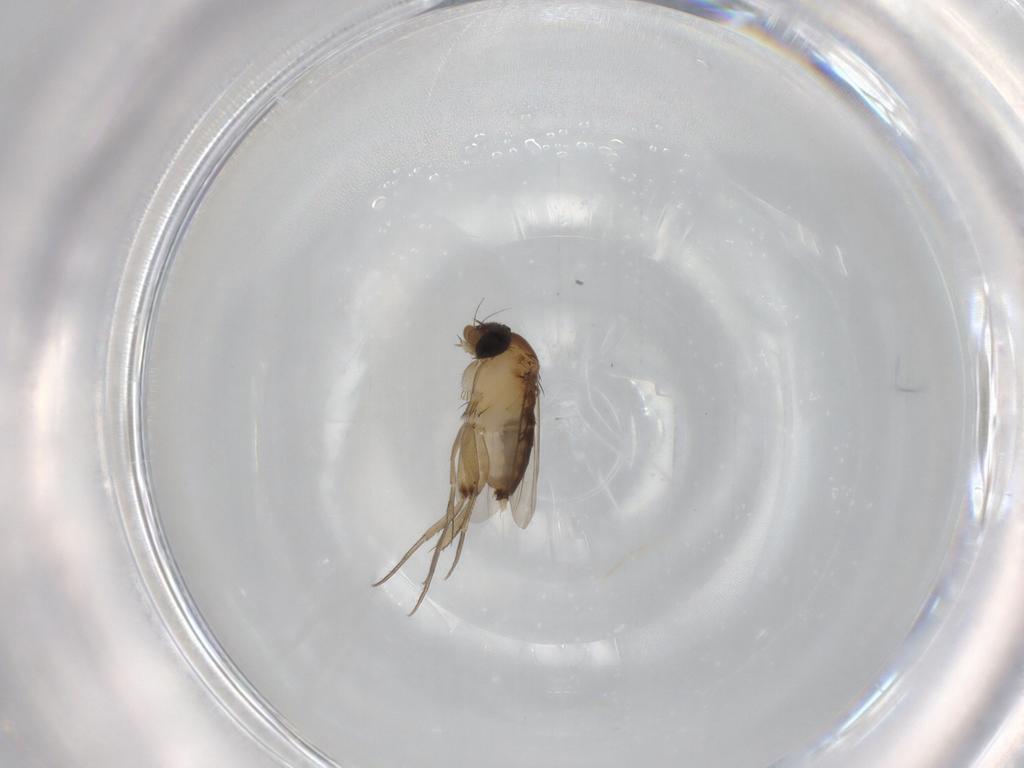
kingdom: Animalia
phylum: Arthropoda
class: Insecta
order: Diptera
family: Phoridae
